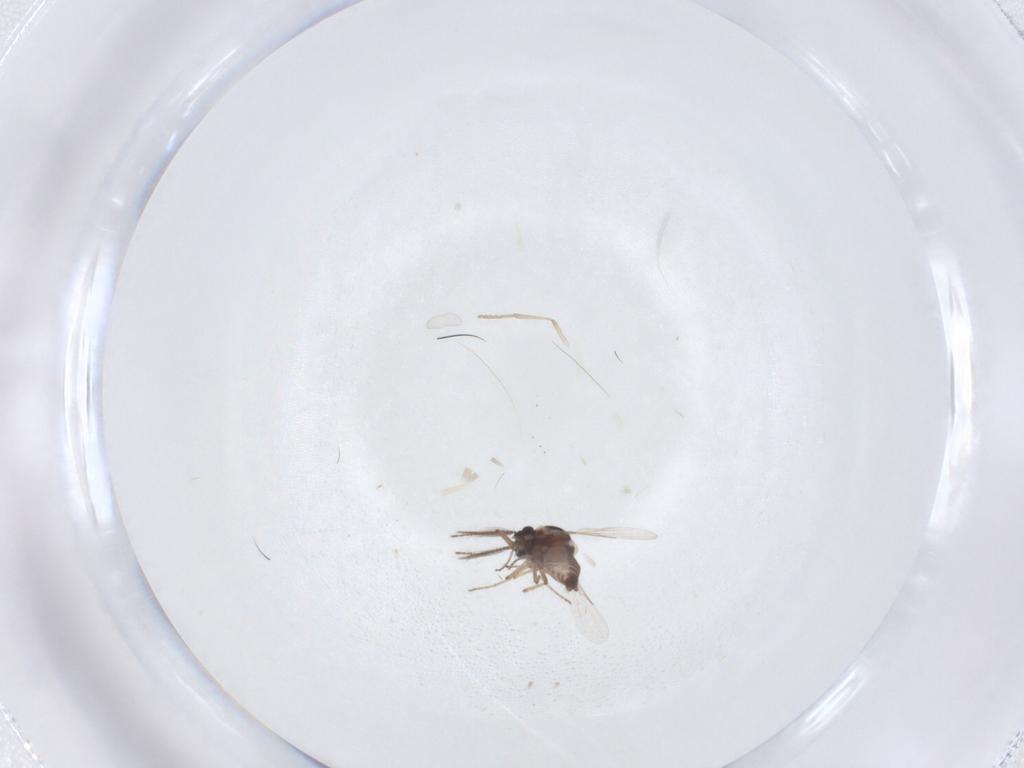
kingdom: Animalia
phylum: Arthropoda
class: Insecta
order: Diptera
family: Ceratopogonidae
